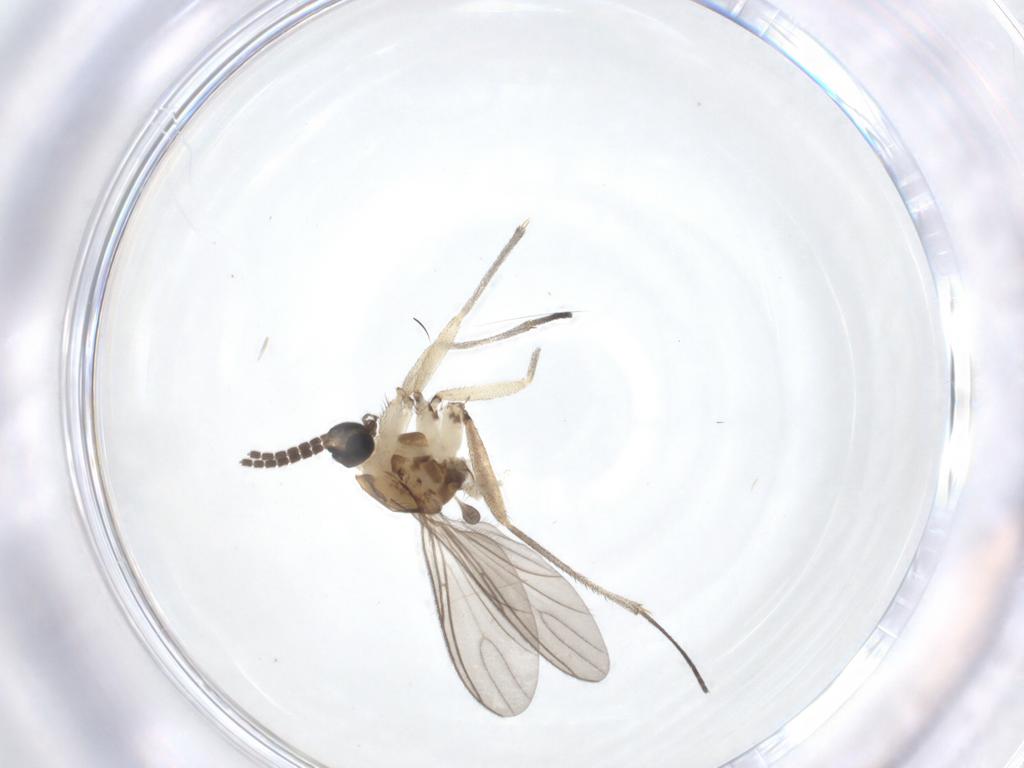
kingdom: Animalia
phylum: Arthropoda
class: Insecta
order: Diptera
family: Sciaridae
